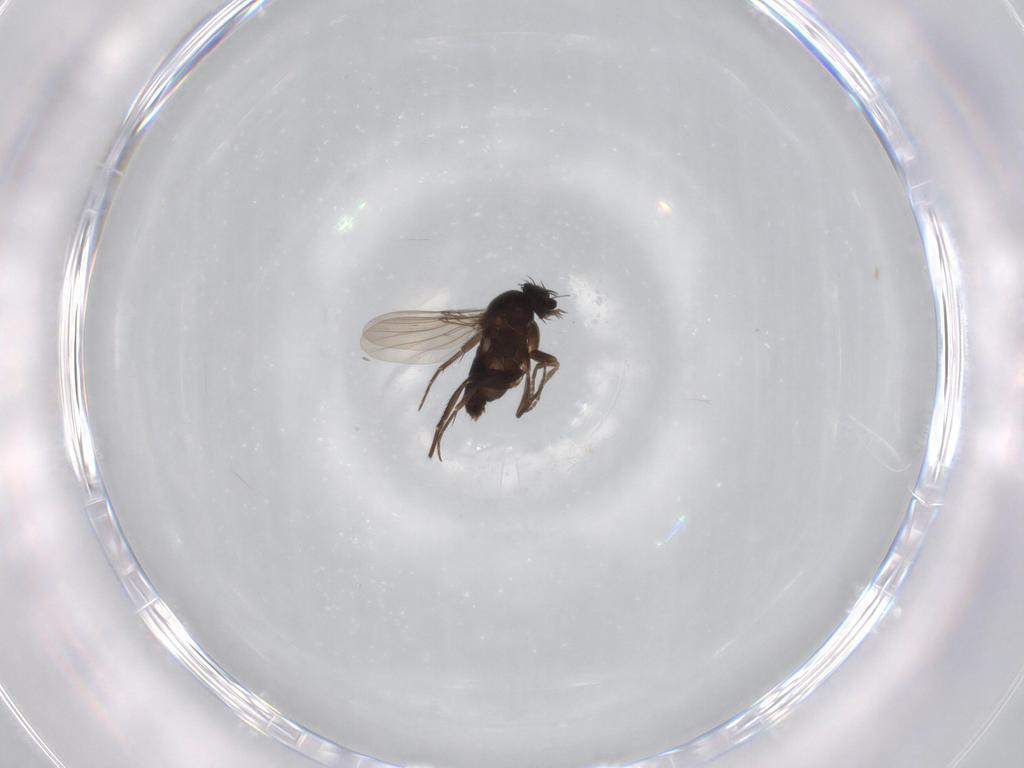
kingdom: Animalia
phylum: Arthropoda
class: Insecta
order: Diptera
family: Phoridae
